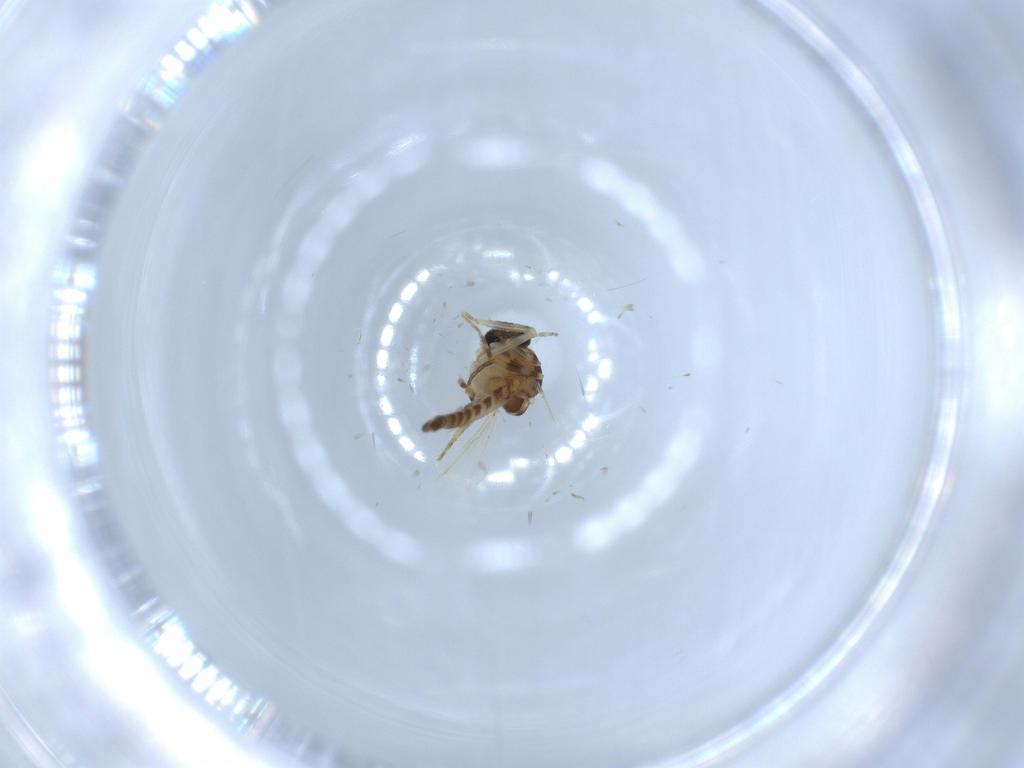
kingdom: Animalia
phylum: Arthropoda
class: Insecta
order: Diptera
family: Ceratopogonidae
